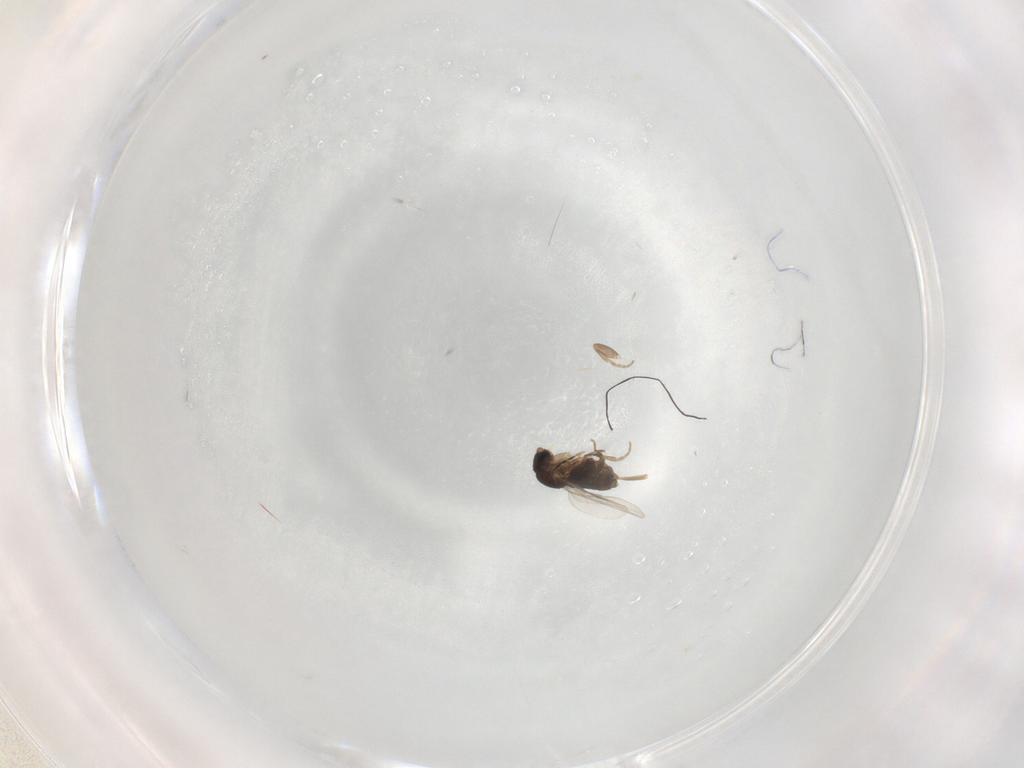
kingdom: Animalia
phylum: Arthropoda
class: Insecta
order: Diptera
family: Phoridae
